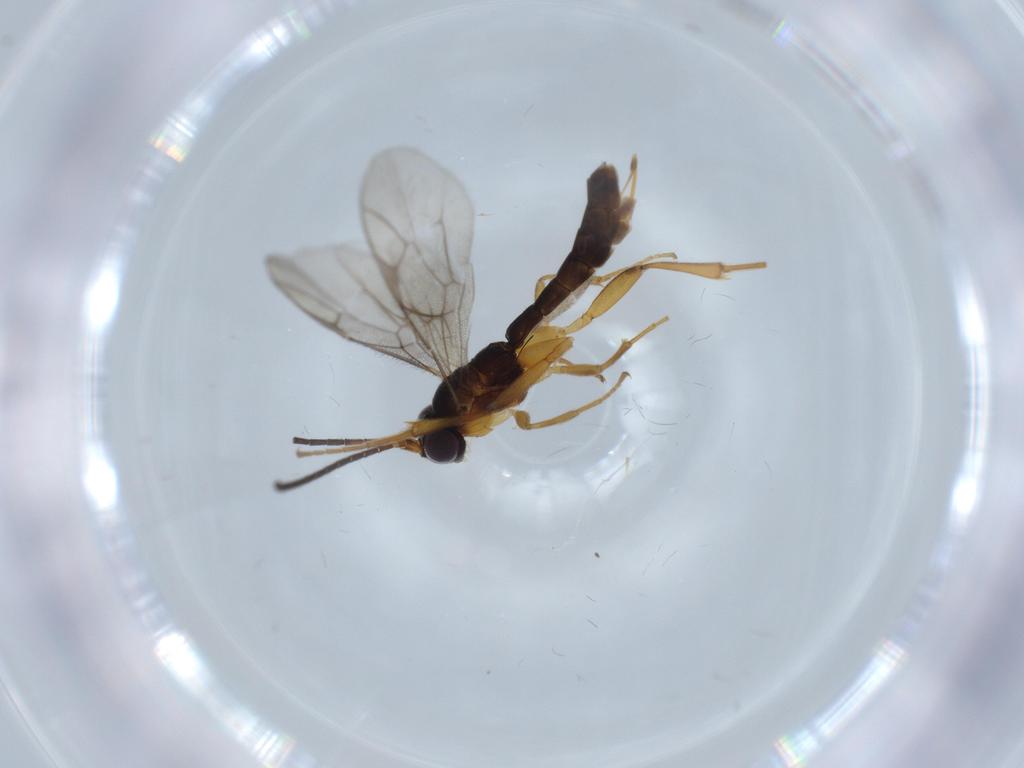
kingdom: Animalia
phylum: Arthropoda
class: Insecta
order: Hymenoptera
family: Ichneumonidae
